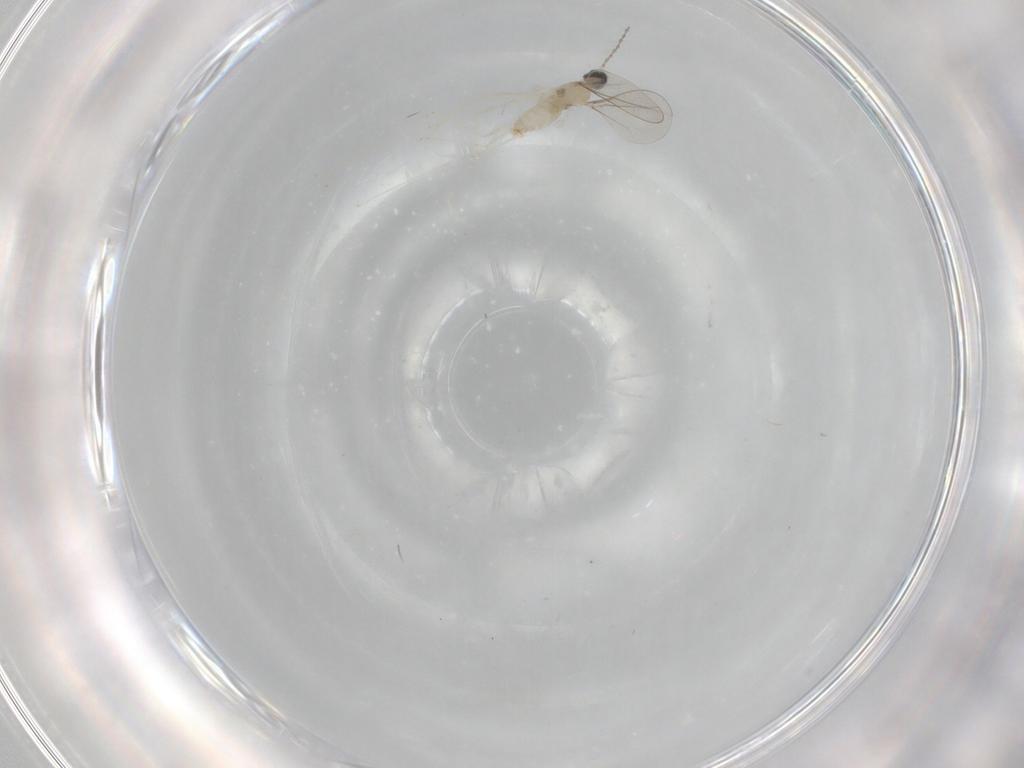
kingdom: Animalia
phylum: Arthropoda
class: Insecta
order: Diptera
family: Cecidomyiidae
